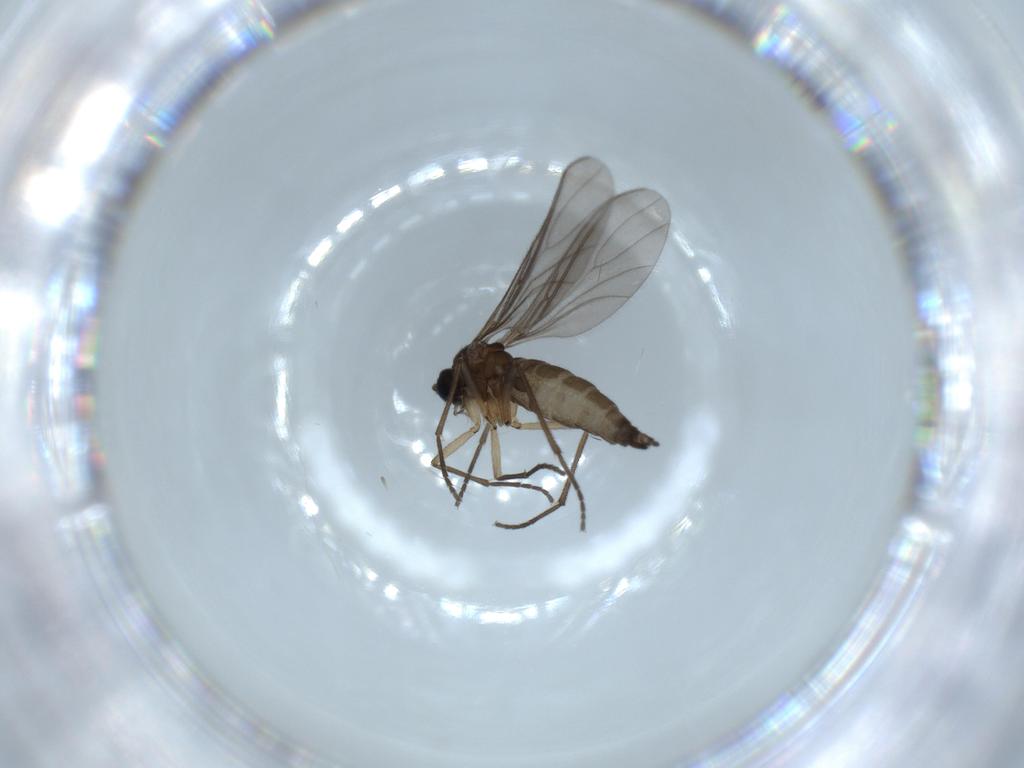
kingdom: Animalia
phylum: Arthropoda
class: Insecta
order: Diptera
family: Sciaridae
